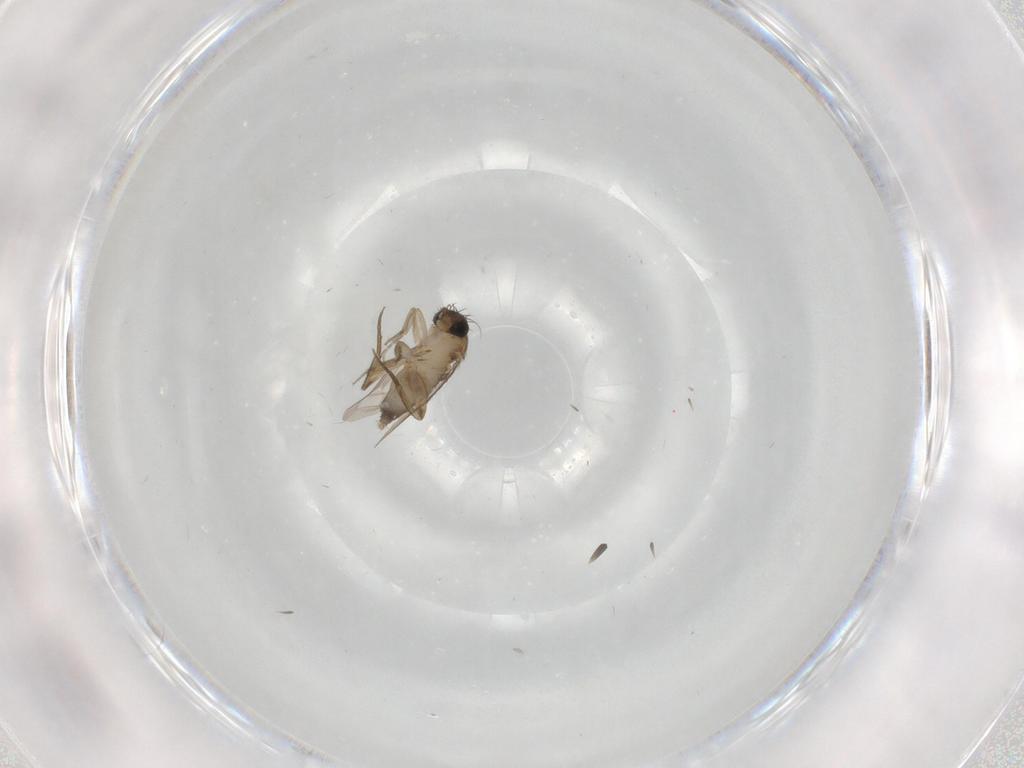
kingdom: Animalia
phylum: Arthropoda
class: Insecta
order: Diptera
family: Phoridae
